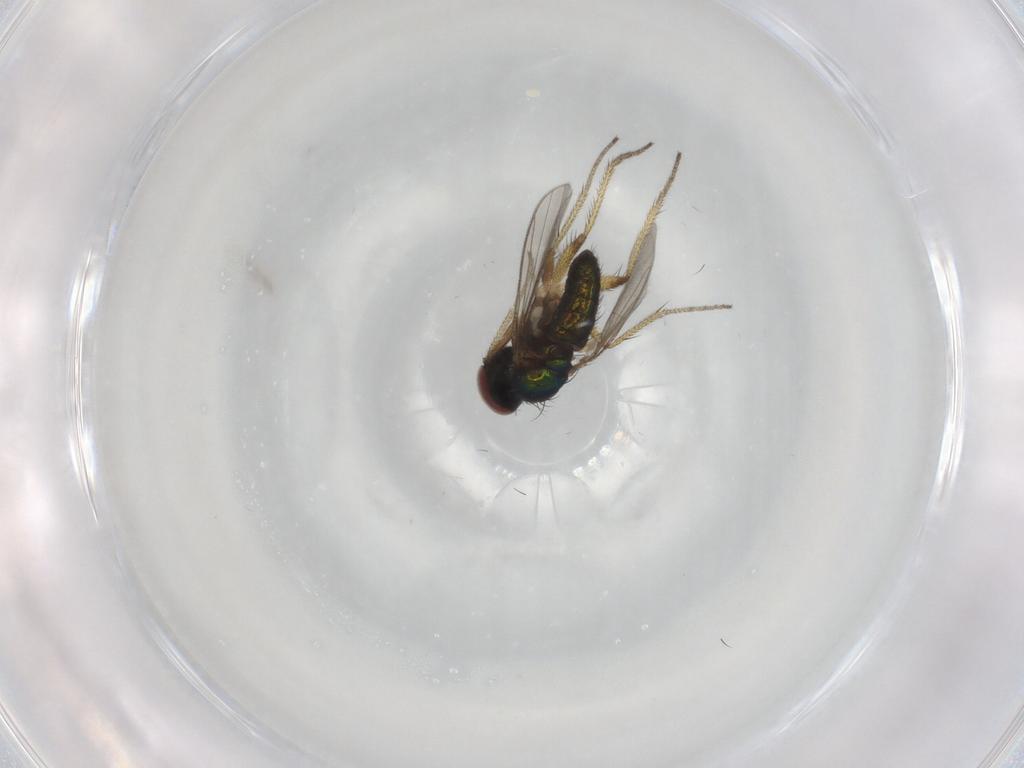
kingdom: Animalia
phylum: Arthropoda
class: Insecta
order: Diptera
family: Dolichopodidae
